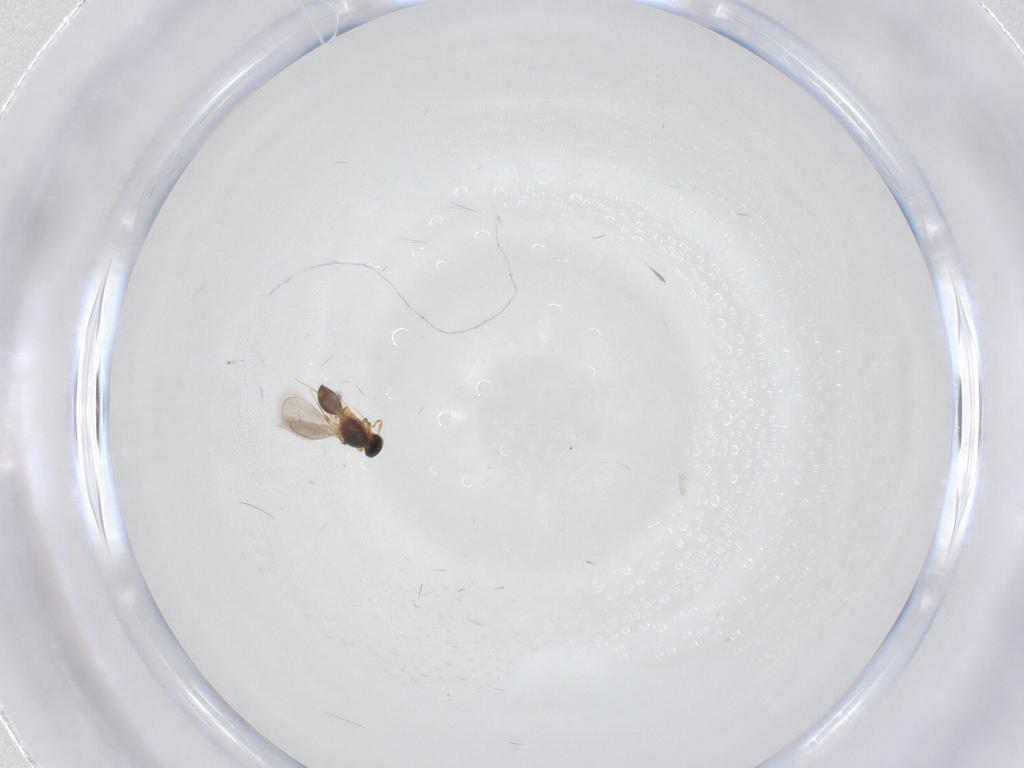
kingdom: Animalia
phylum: Arthropoda
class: Insecta
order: Hymenoptera
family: Platygastridae
